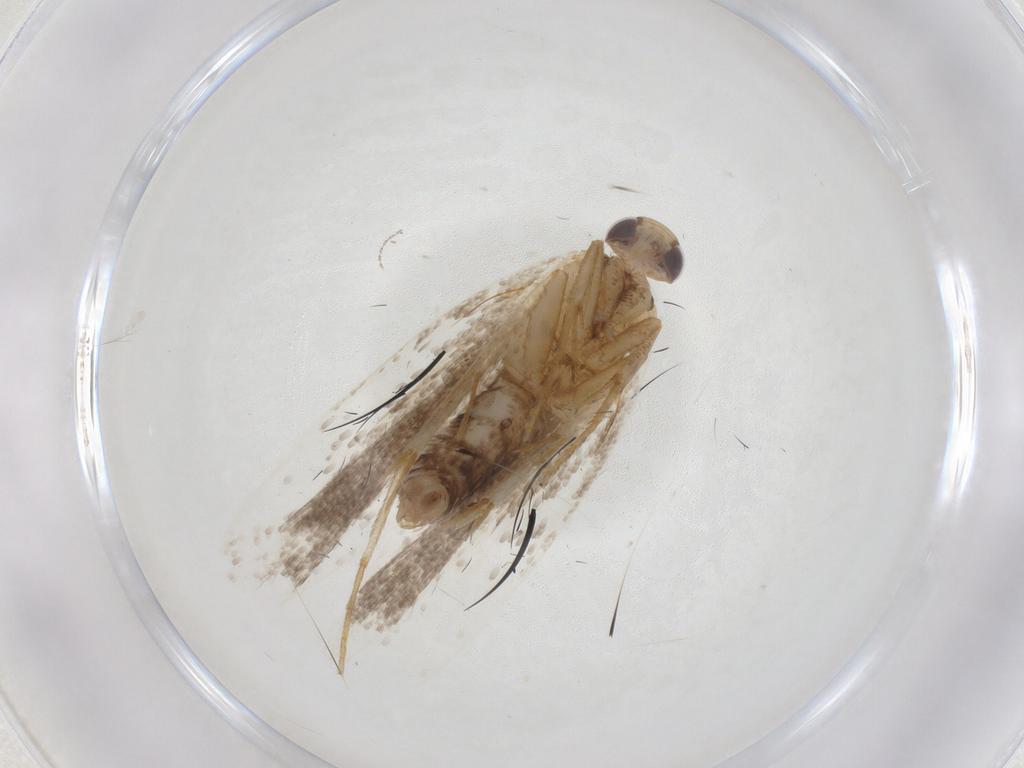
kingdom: Animalia
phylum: Arthropoda
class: Insecta
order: Lepidoptera
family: Gelechiidae
